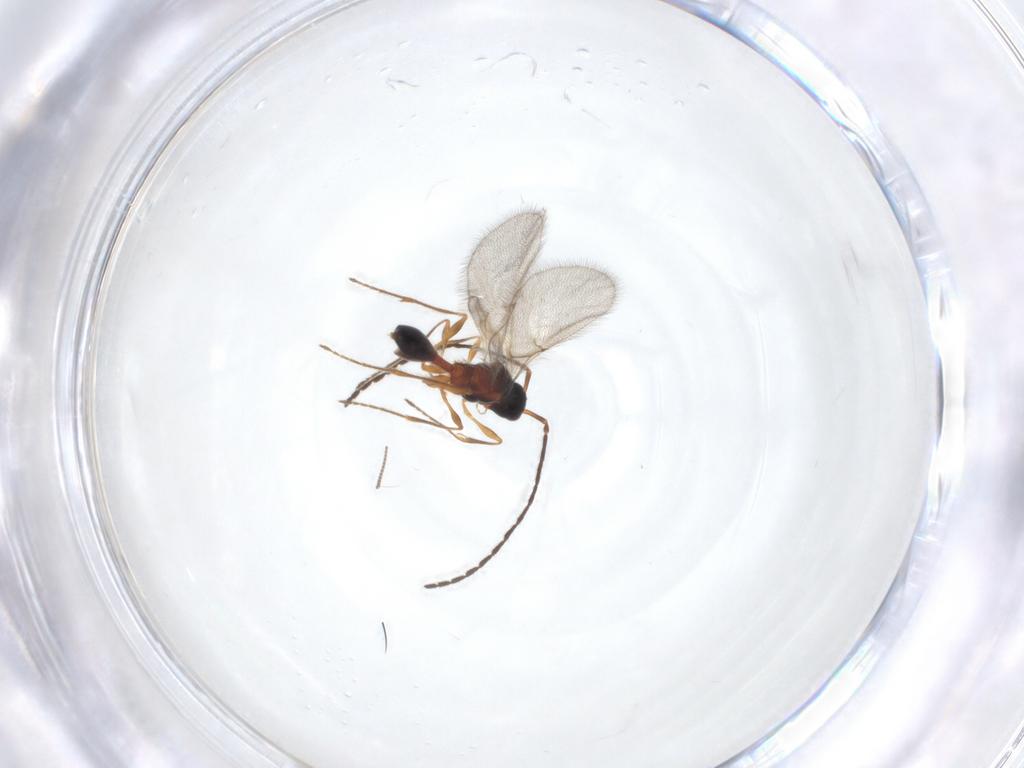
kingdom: Animalia
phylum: Arthropoda
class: Insecta
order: Hymenoptera
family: Diapriidae
